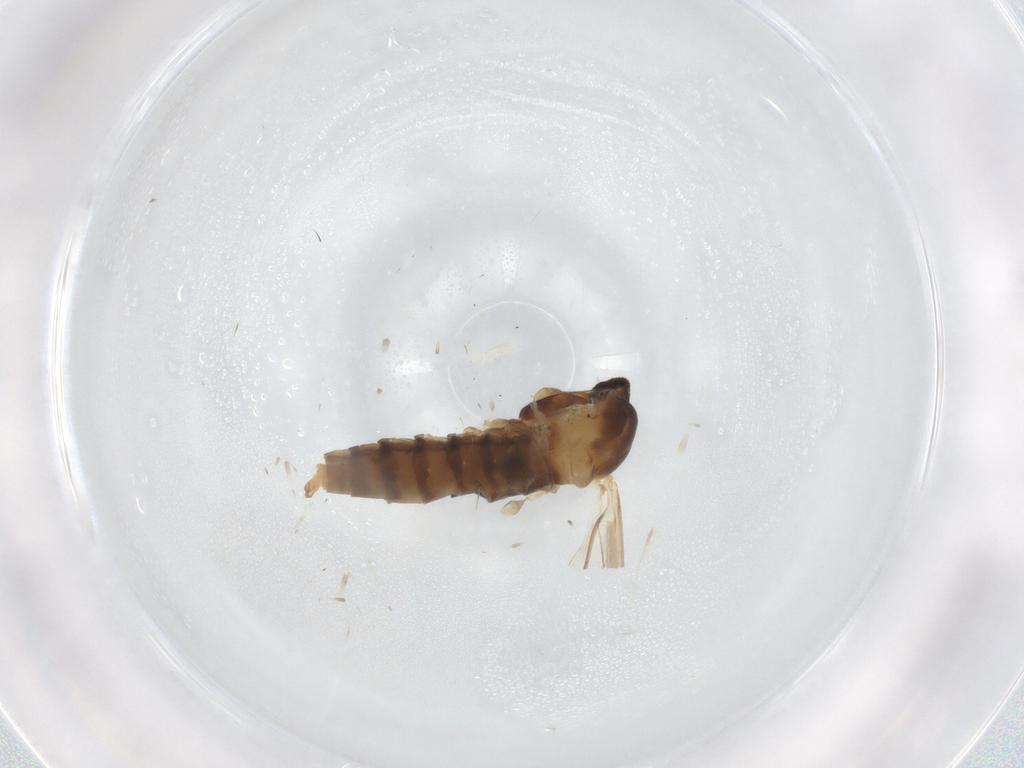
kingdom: Animalia
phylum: Arthropoda
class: Insecta
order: Diptera
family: Cecidomyiidae
